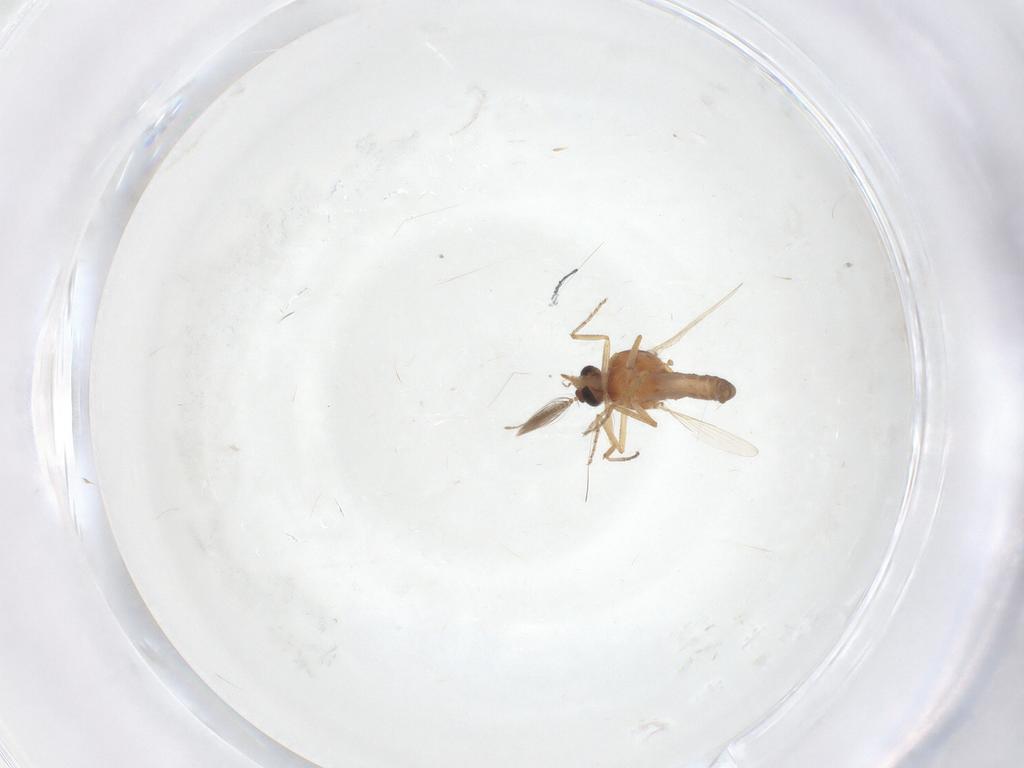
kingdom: Animalia
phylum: Arthropoda
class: Insecta
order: Diptera
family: Ceratopogonidae
